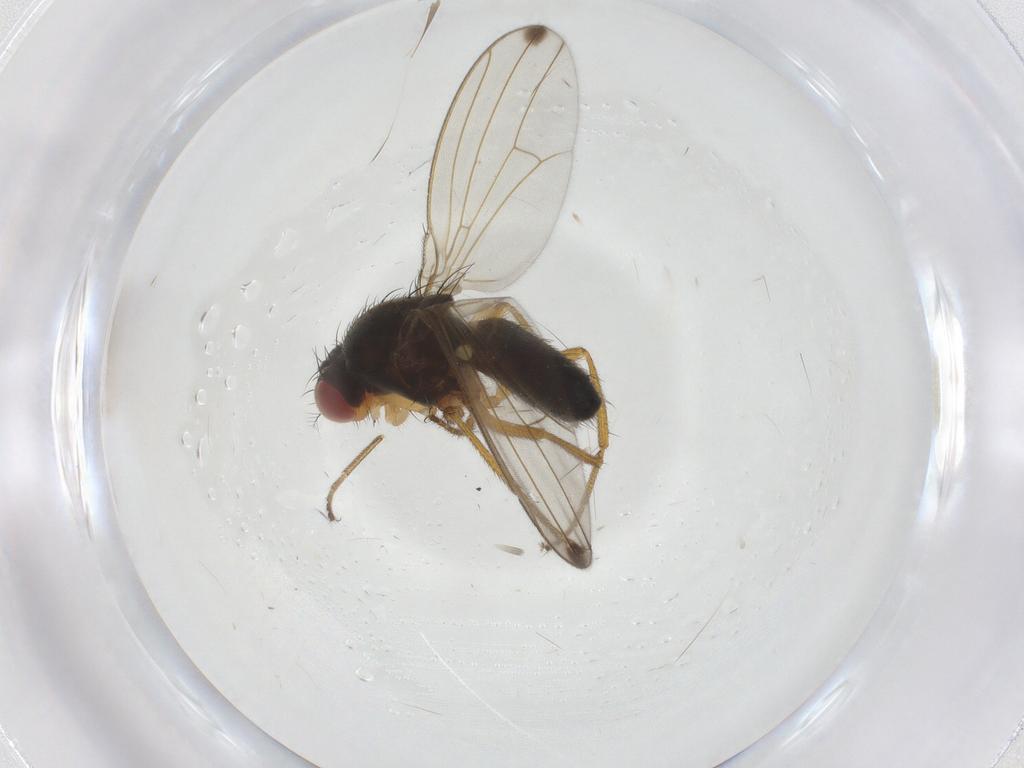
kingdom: Animalia
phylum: Arthropoda
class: Insecta
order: Diptera
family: Drosophilidae
